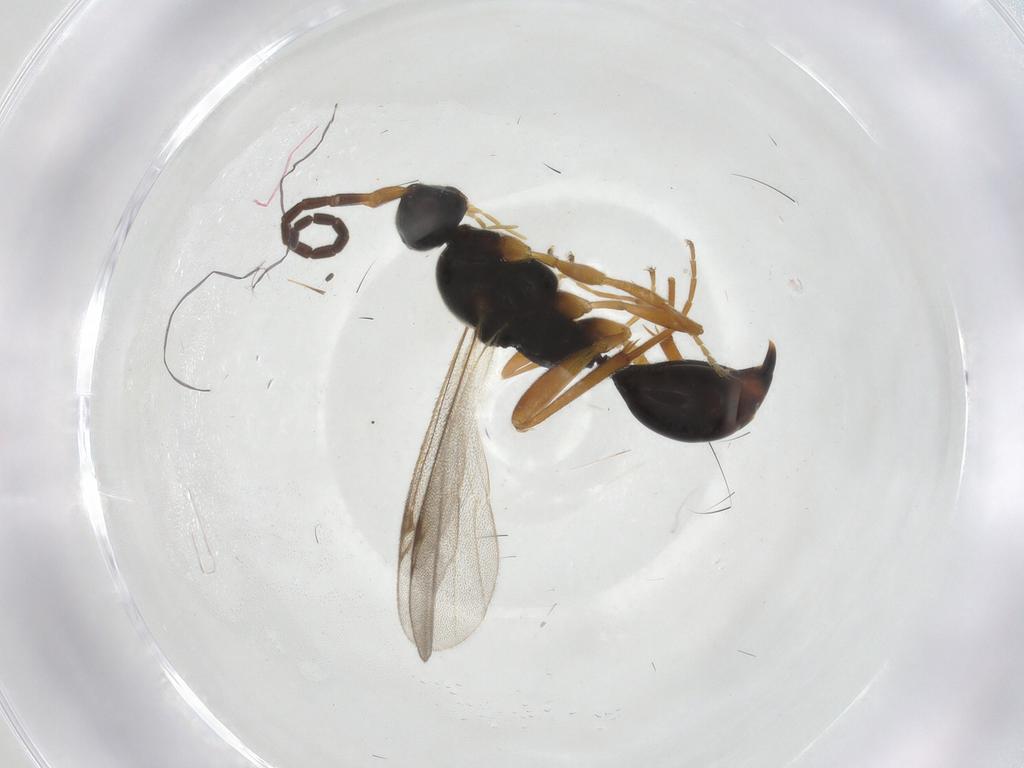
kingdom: Animalia
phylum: Arthropoda
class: Insecta
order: Hymenoptera
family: Proctotrupidae
